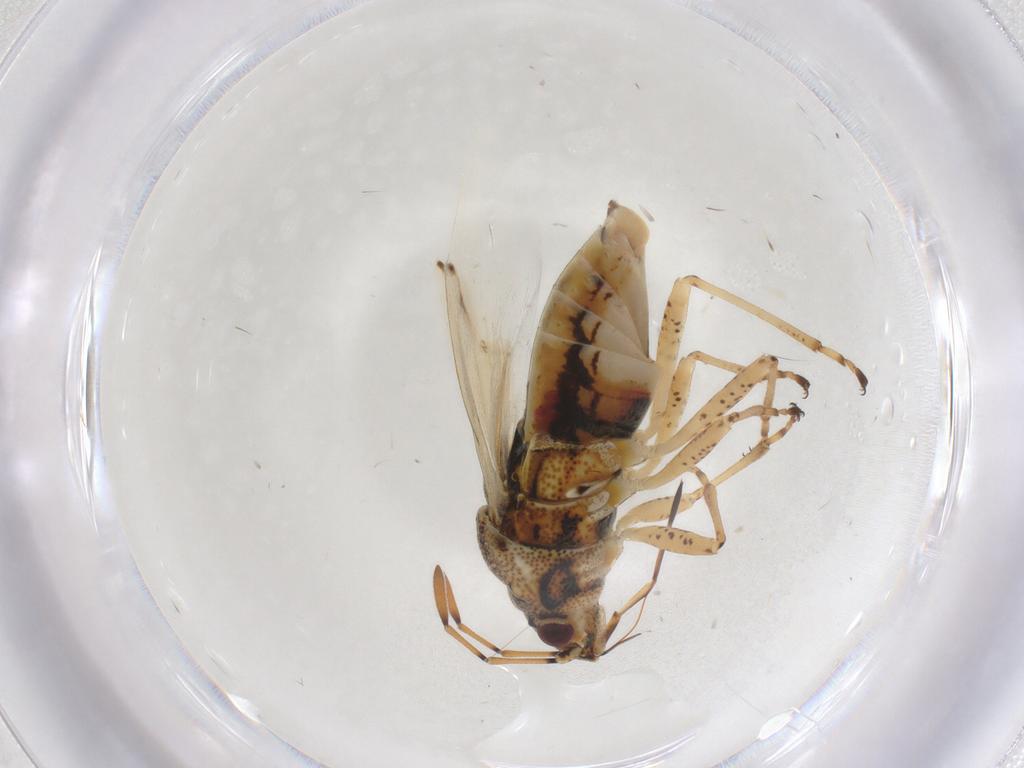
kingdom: Animalia
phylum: Arthropoda
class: Insecta
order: Hemiptera
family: Lygaeidae
